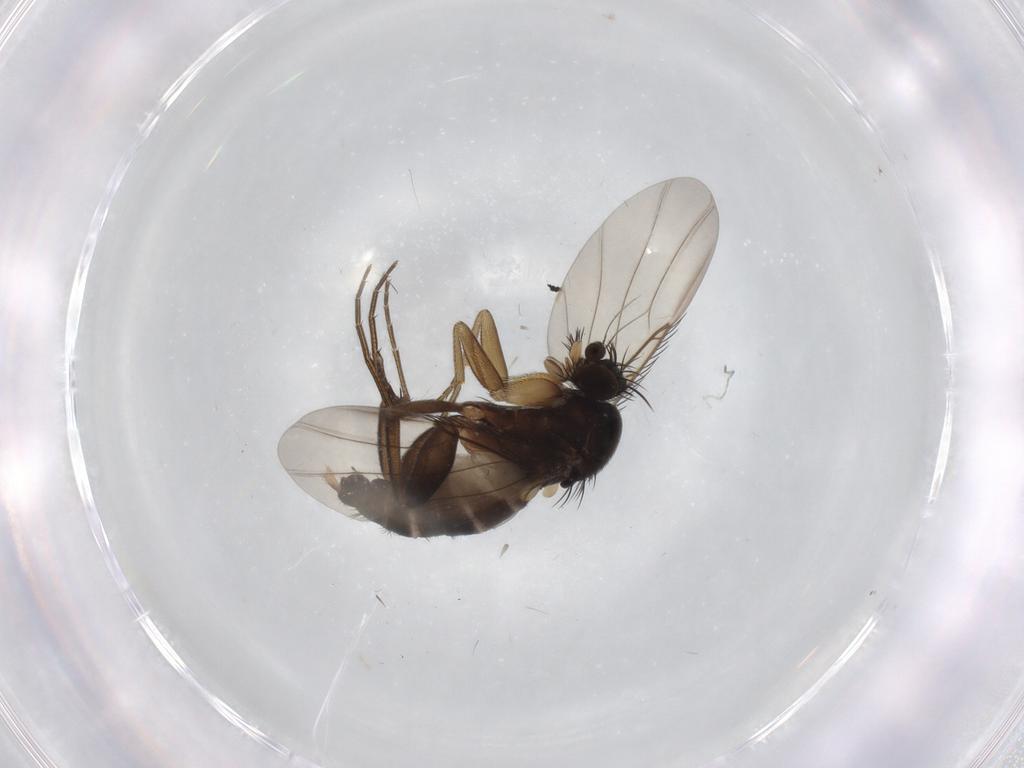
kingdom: Animalia
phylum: Arthropoda
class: Insecta
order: Diptera
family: Phoridae
